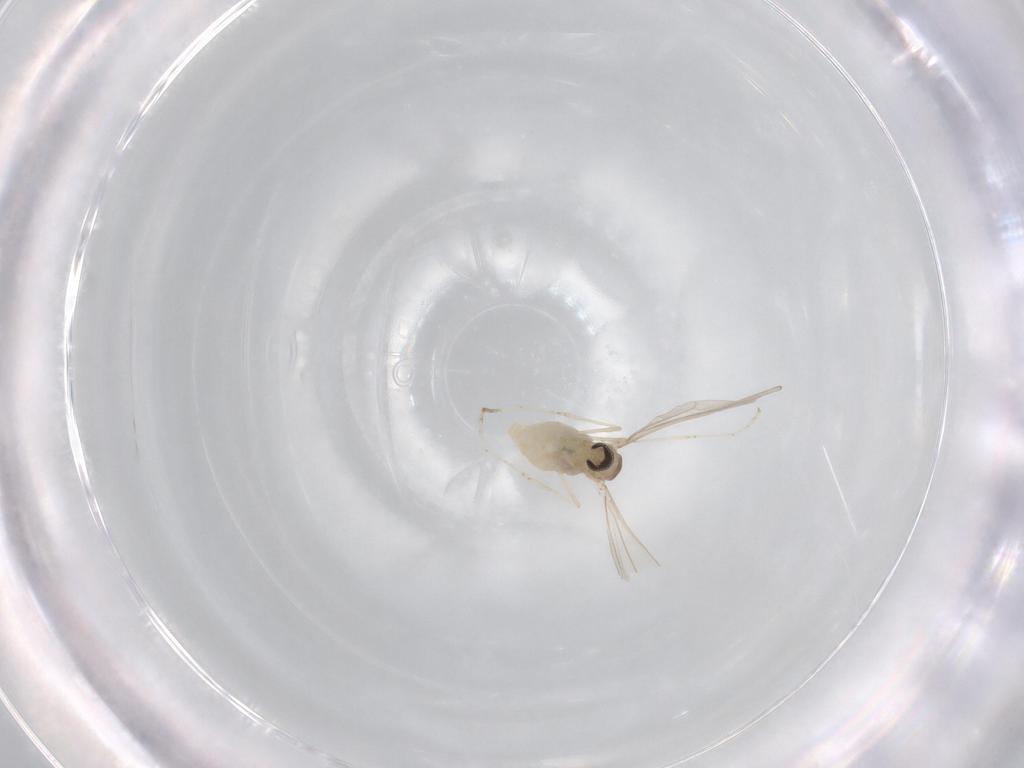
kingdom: Animalia
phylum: Arthropoda
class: Insecta
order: Diptera
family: Cecidomyiidae
